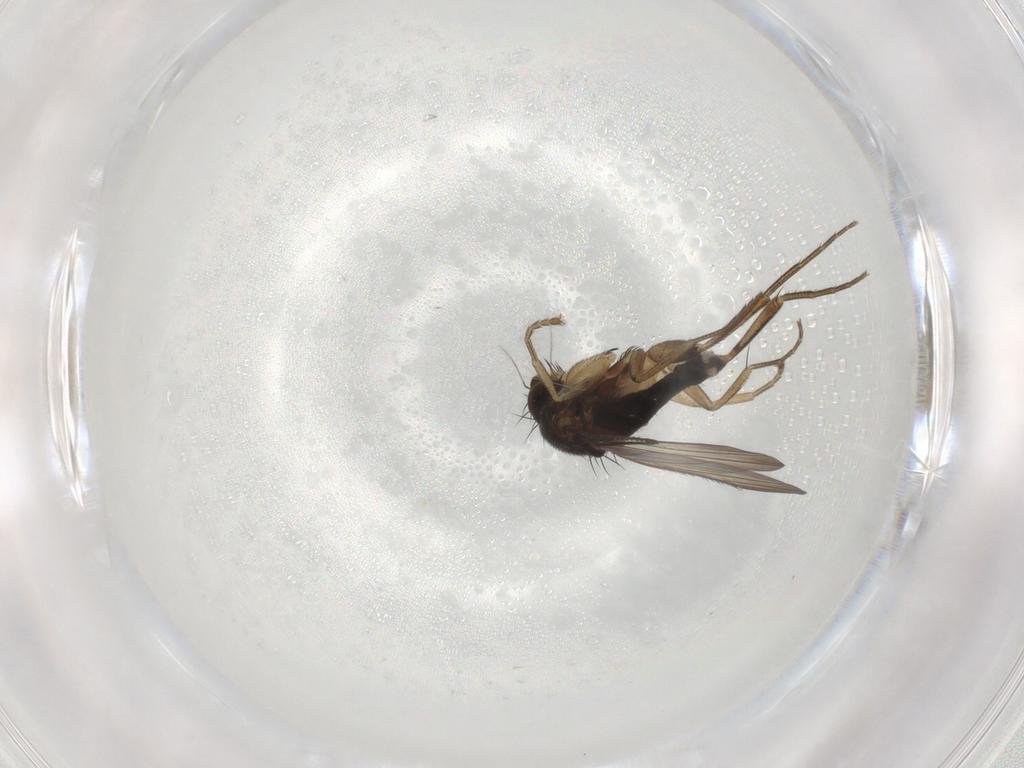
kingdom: Animalia
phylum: Arthropoda
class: Insecta
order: Diptera
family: Phoridae
